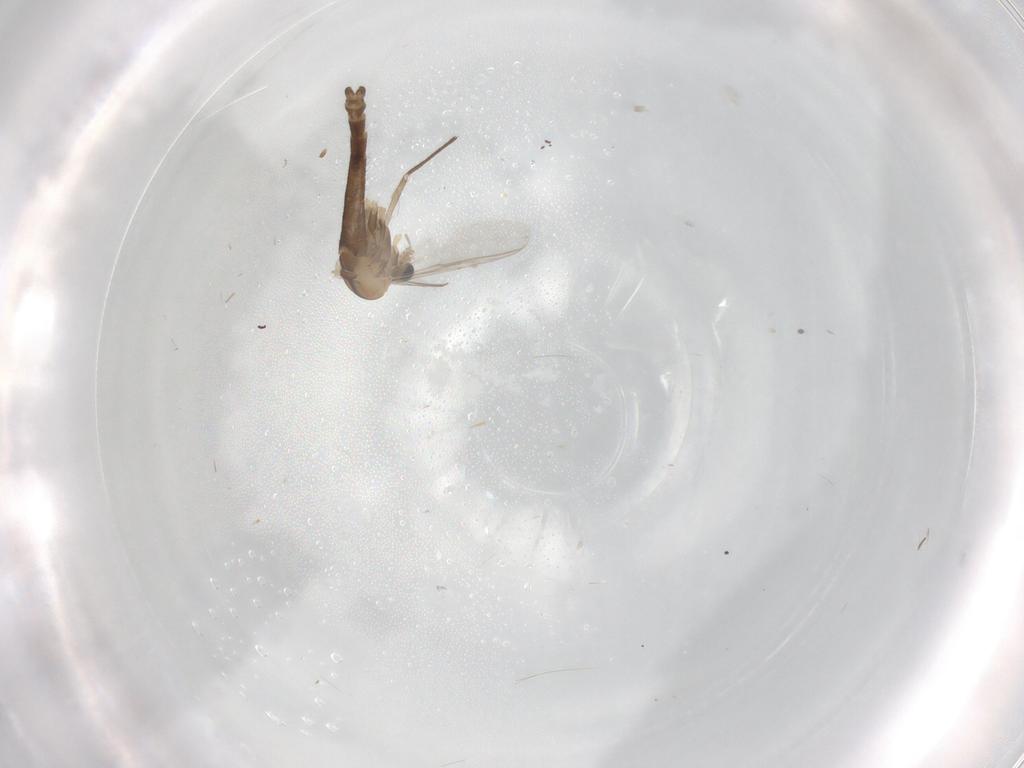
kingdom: Animalia
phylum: Arthropoda
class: Insecta
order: Diptera
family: Chironomidae
